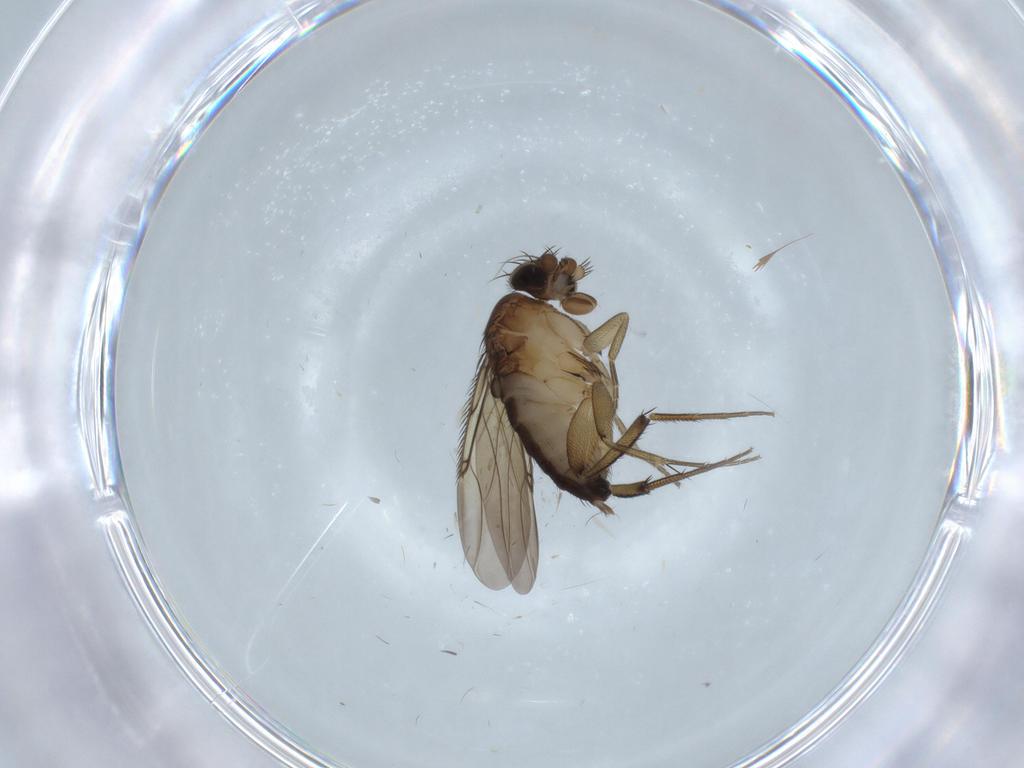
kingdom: Animalia
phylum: Arthropoda
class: Insecta
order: Diptera
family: Phoridae
